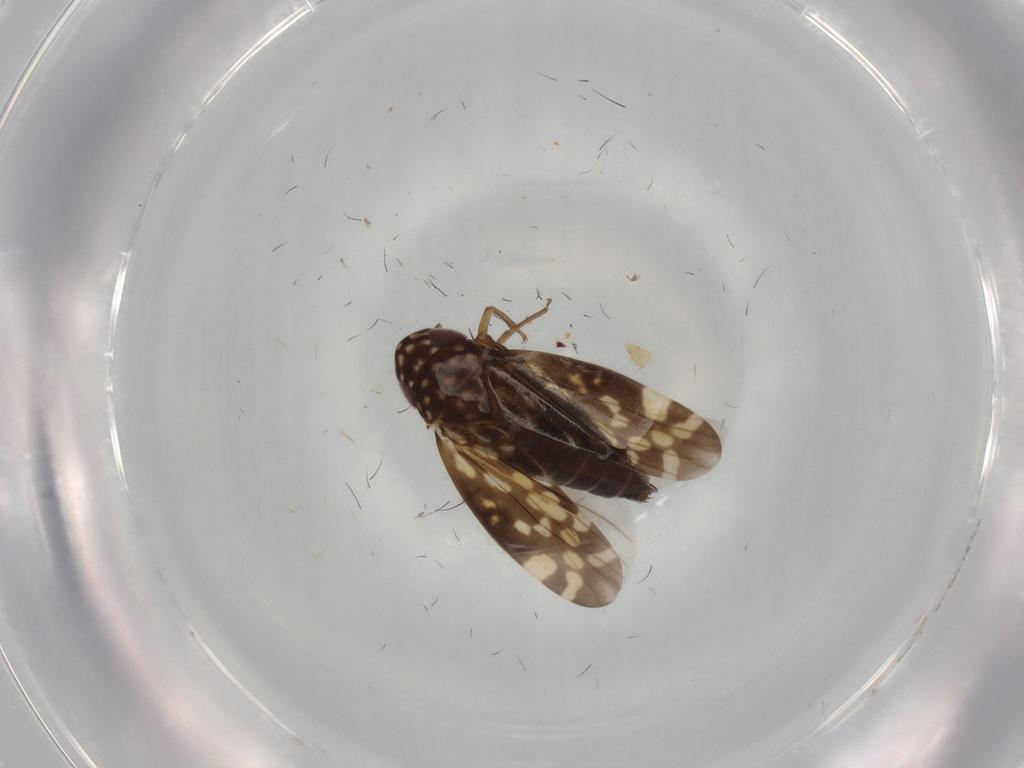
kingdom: Animalia
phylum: Arthropoda
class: Insecta
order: Hemiptera
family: Cicadellidae
